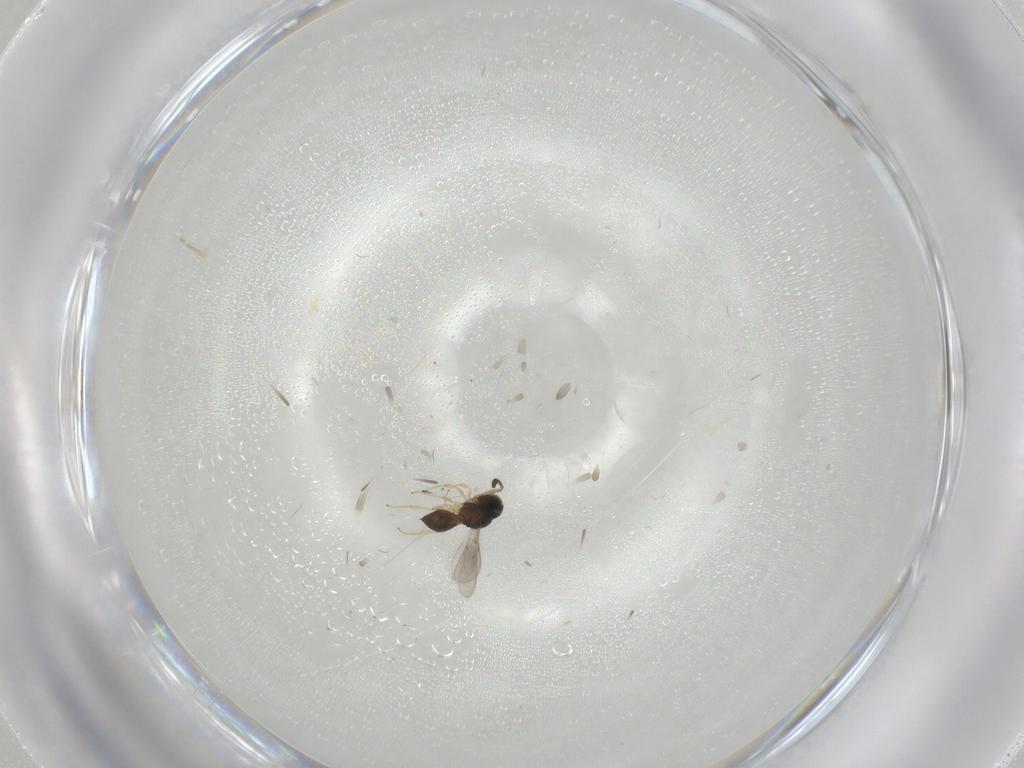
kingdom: Animalia
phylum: Arthropoda
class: Insecta
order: Hymenoptera
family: Scelionidae
